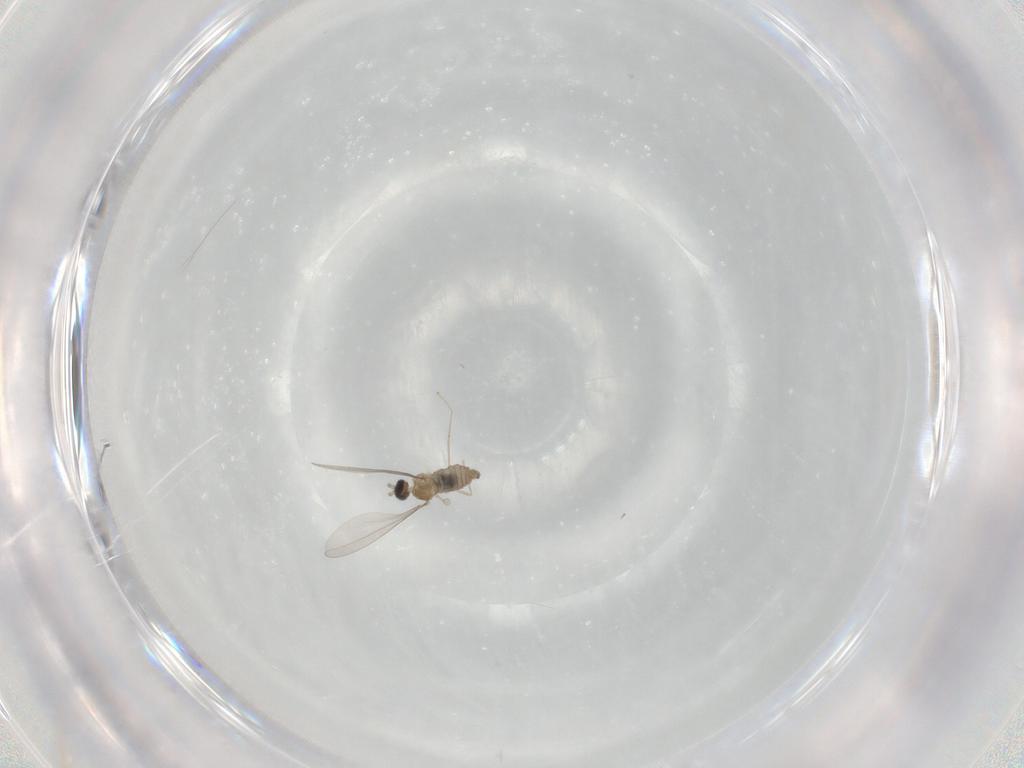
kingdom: Animalia
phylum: Arthropoda
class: Insecta
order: Diptera
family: Cecidomyiidae
